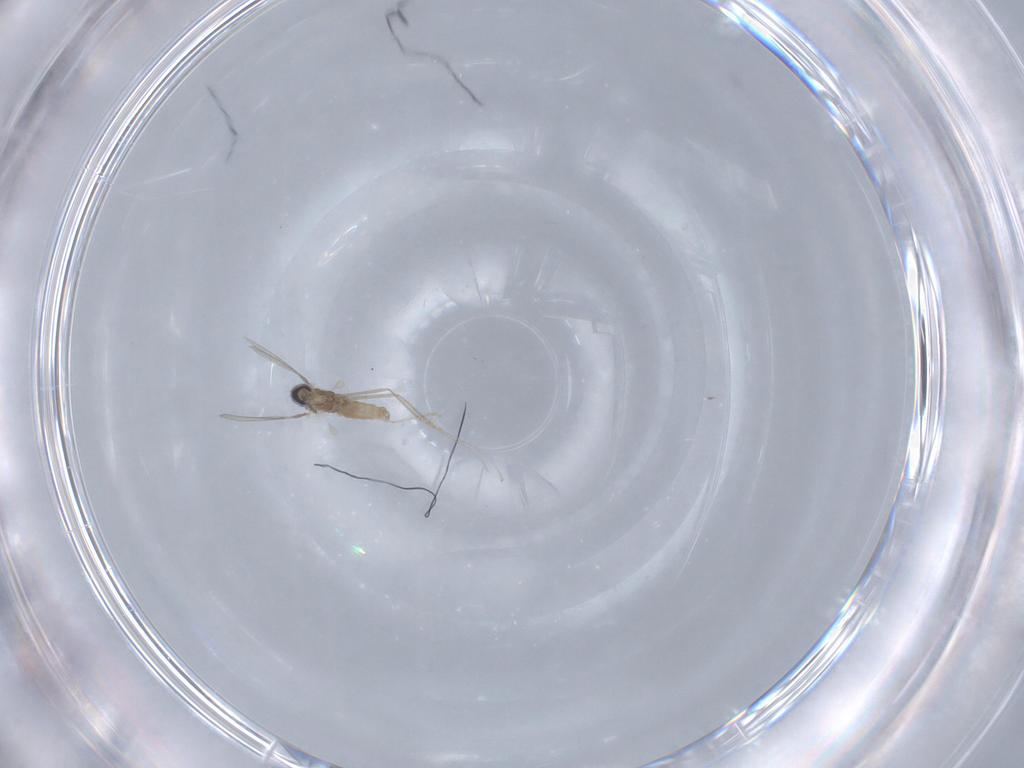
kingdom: Animalia
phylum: Arthropoda
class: Insecta
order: Diptera
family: Cecidomyiidae
